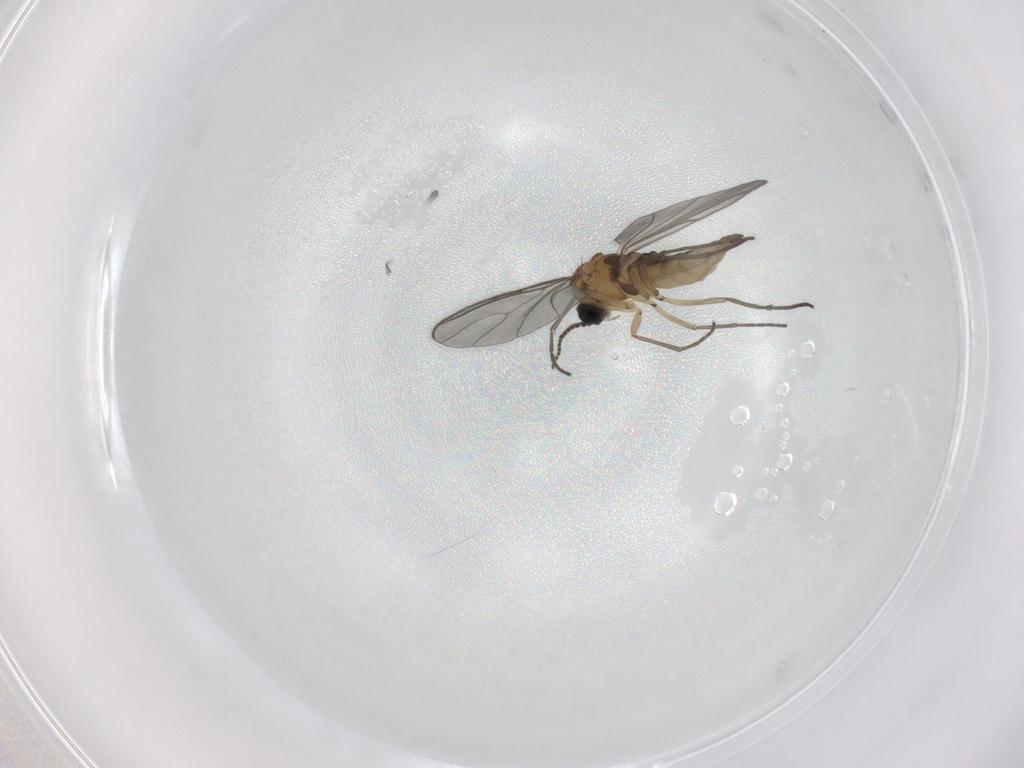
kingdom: Animalia
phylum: Arthropoda
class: Insecta
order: Diptera
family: Sciaridae
